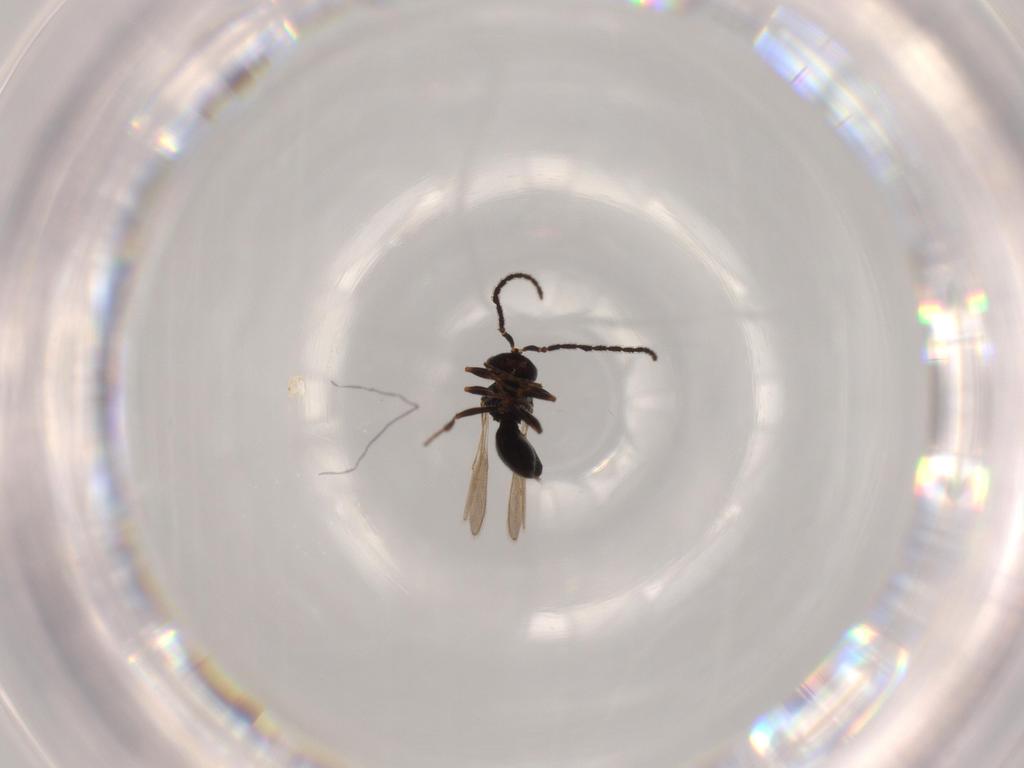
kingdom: Animalia
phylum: Arthropoda
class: Insecta
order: Hymenoptera
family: Scelionidae
